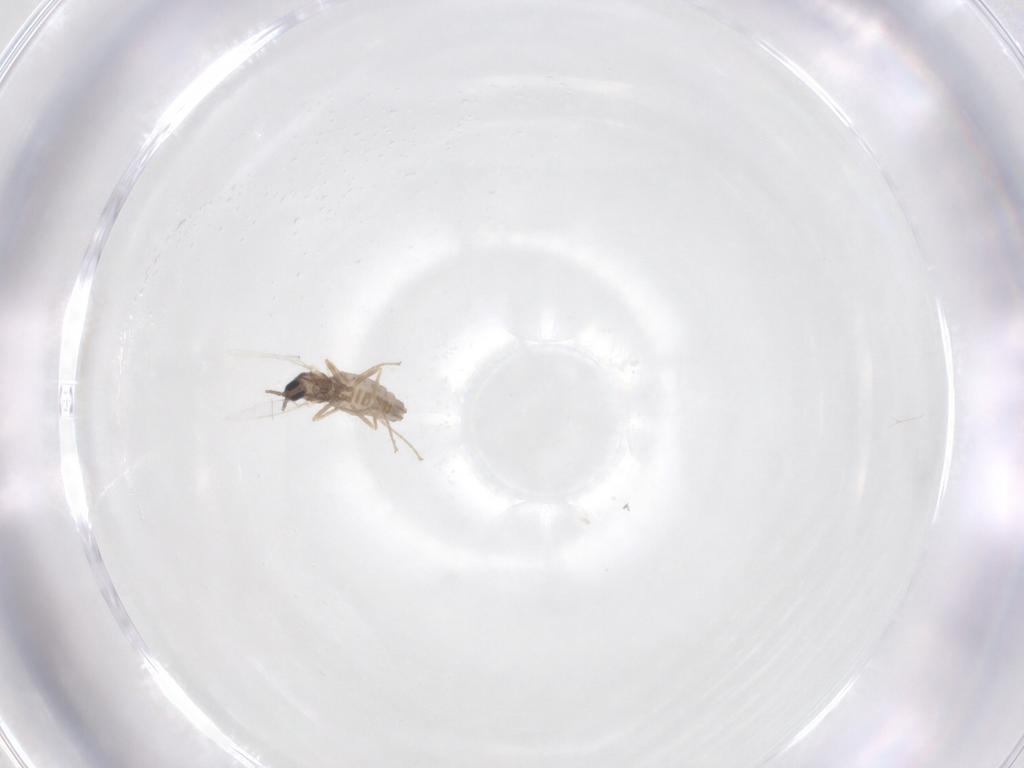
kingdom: Animalia
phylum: Arthropoda
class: Insecta
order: Diptera
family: Cecidomyiidae
